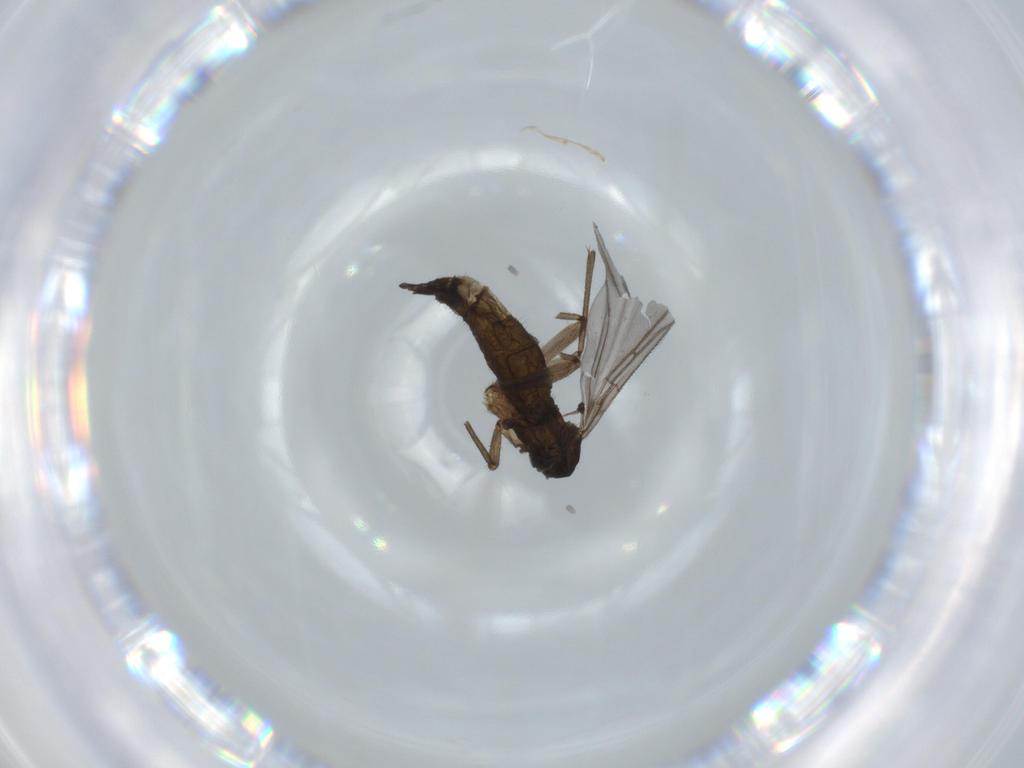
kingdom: Animalia
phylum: Arthropoda
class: Insecta
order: Diptera
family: Sciaridae
